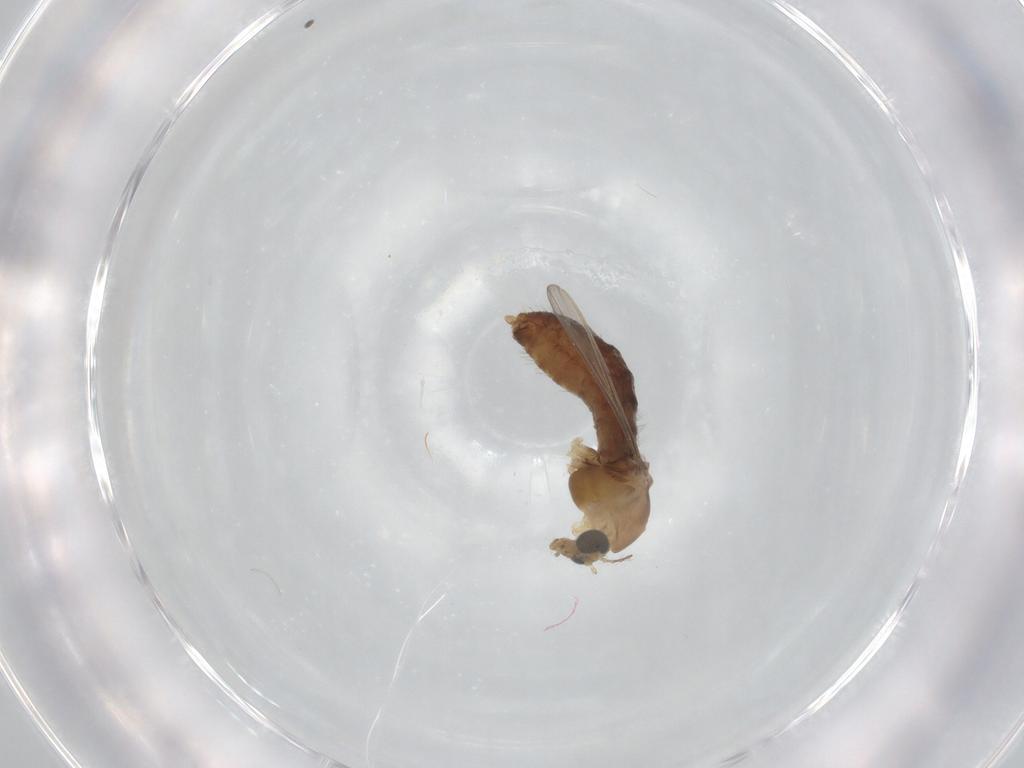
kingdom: Animalia
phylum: Arthropoda
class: Insecta
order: Diptera
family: Chironomidae
